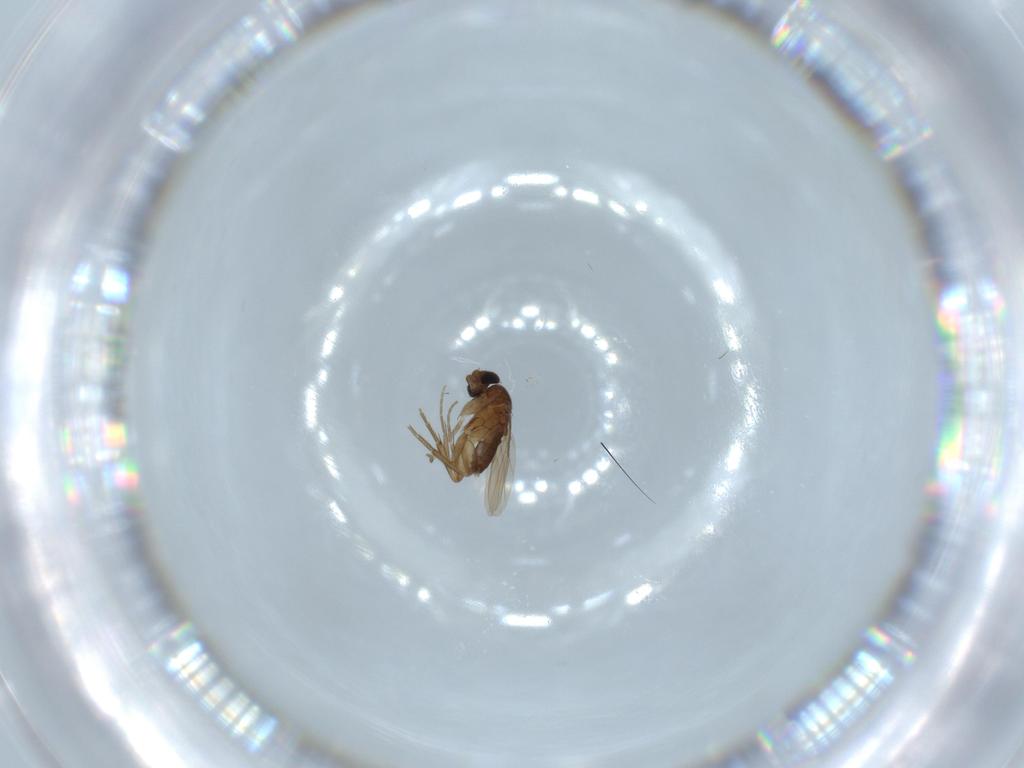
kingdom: Animalia
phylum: Arthropoda
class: Insecta
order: Diptera
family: Phoridae
